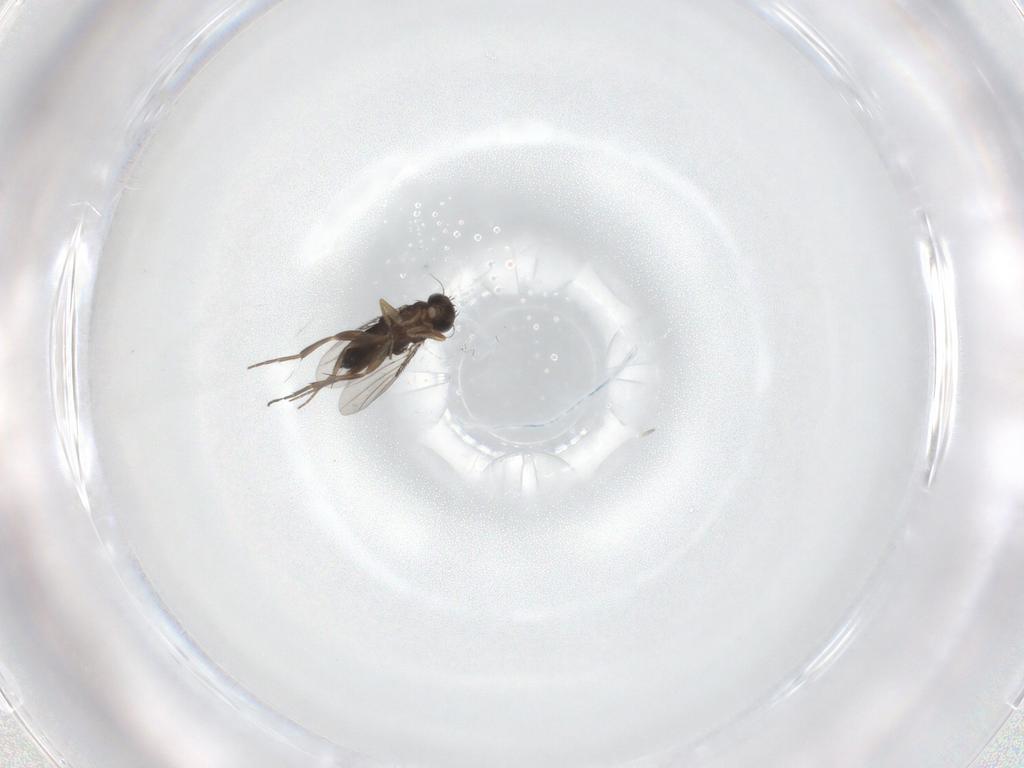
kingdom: Animalia
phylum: Arthropoda
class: Insecta
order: Diptera
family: Phoridae
